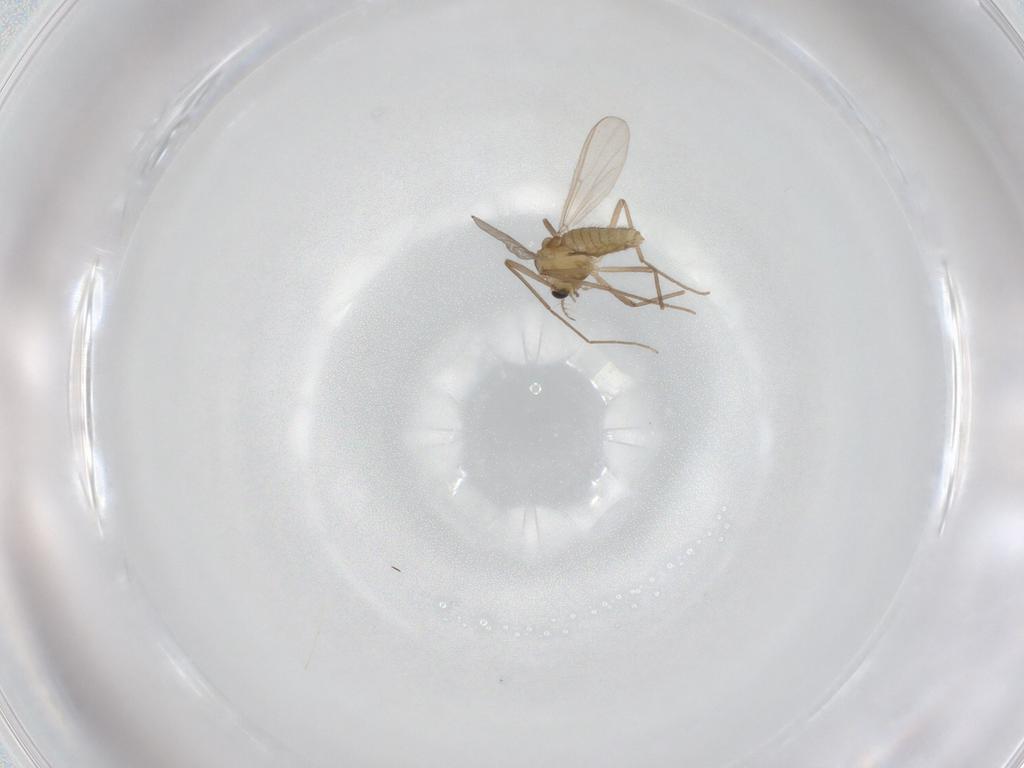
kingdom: Animalia
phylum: Arthropoda
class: Insecta
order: Diptera
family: Chironomidae
